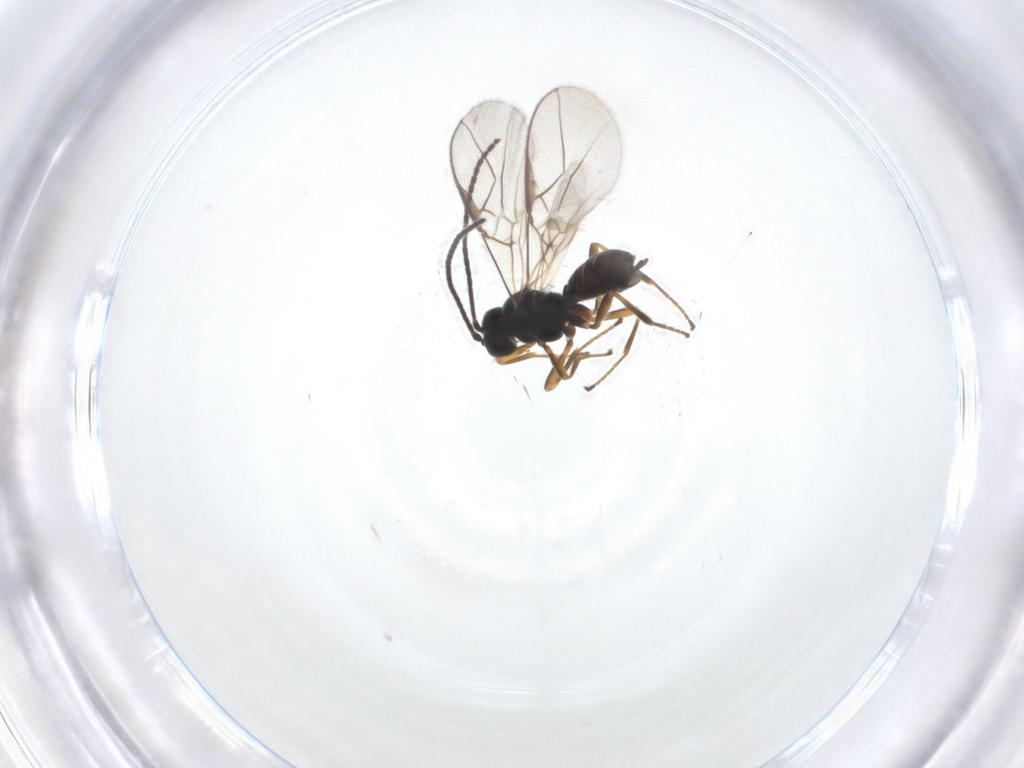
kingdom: Animalia
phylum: Arthropoda
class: Insecta
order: Hymenoptera
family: Braconidae
